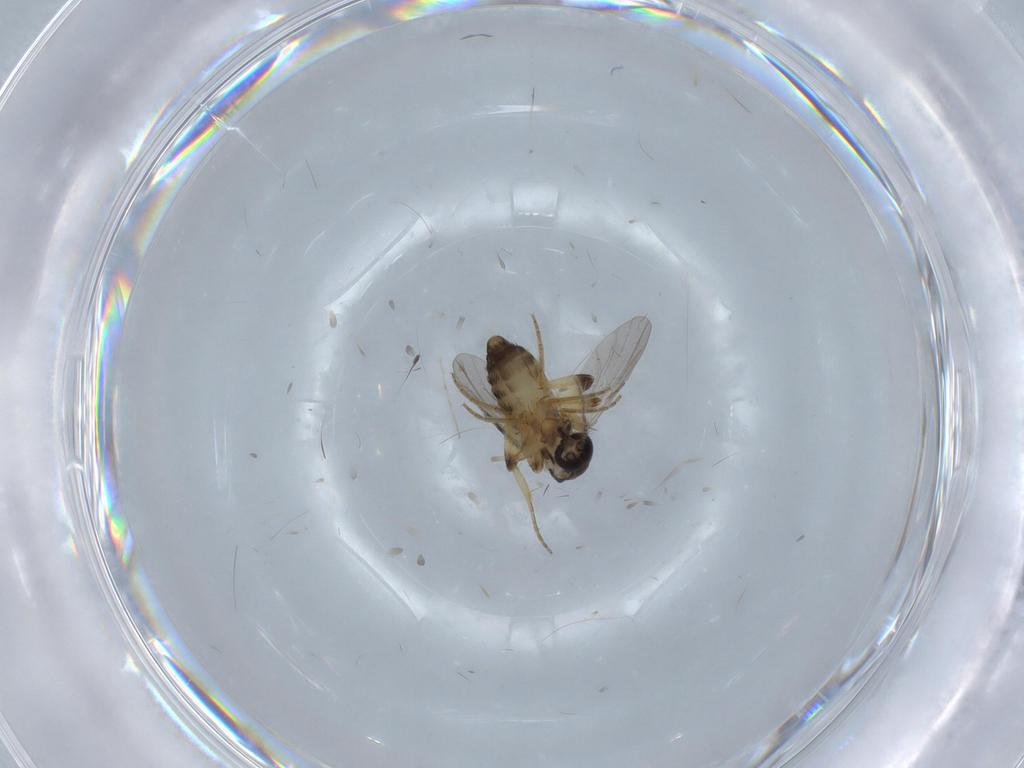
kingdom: Animalia
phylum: Arthropoda
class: Insecta
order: Diptera
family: Ceratopogonidae
